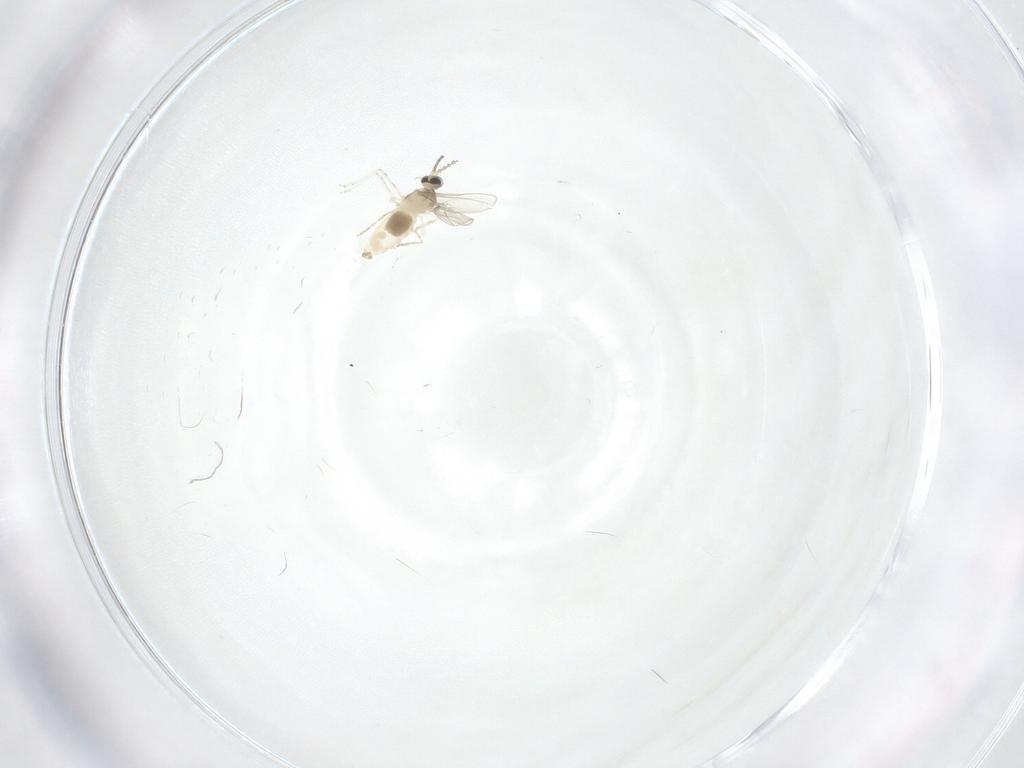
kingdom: Animalia
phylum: Arthropoda
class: Insecta
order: Diptera
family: Cecidomyiidae
